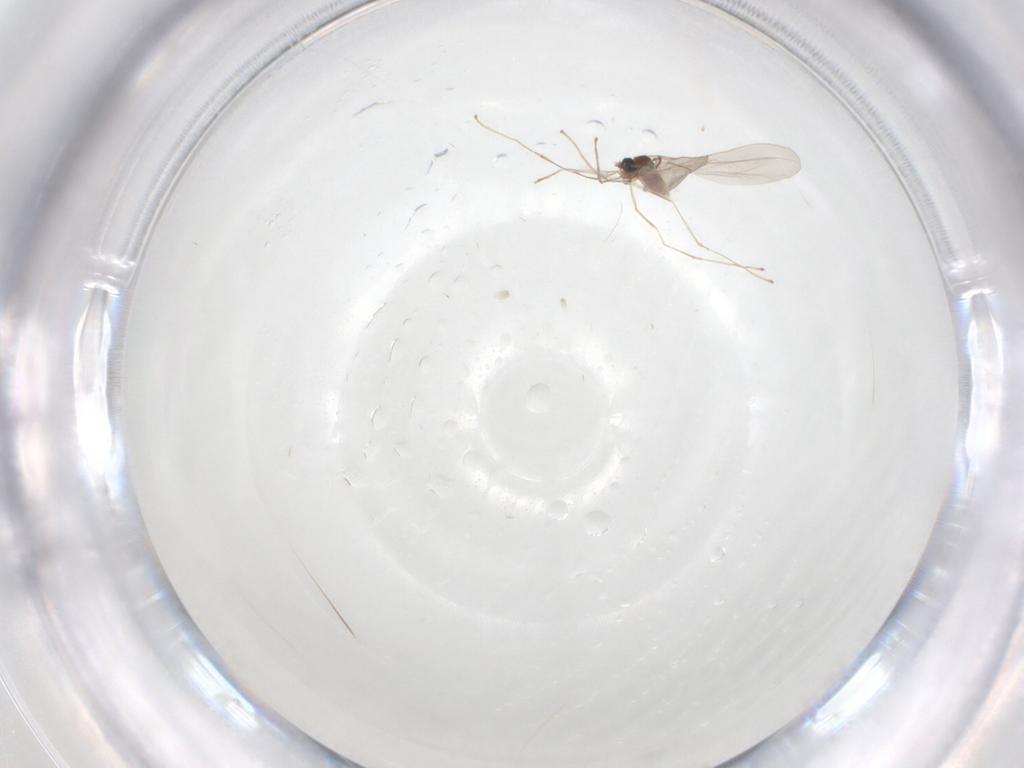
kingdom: Animalia
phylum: Arthropoda
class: Insecta
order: Diptera
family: Cecidomyiidae
